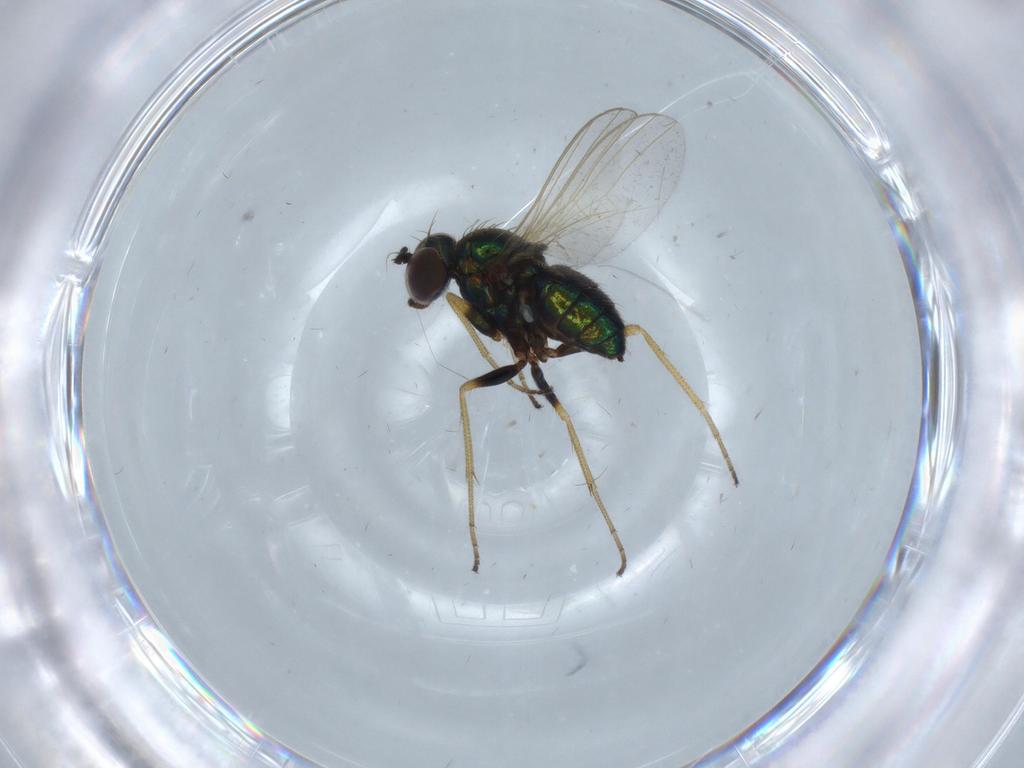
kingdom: Animalia
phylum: Arthropoda
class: Insecta
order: Diptera
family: Dolichopodidae
